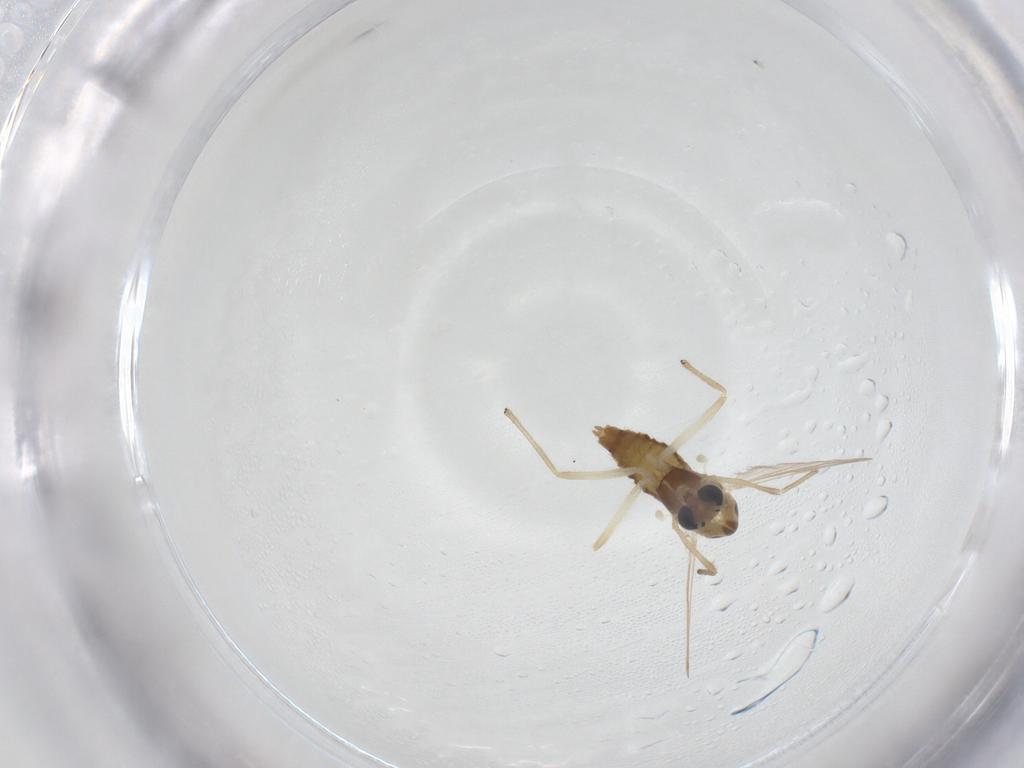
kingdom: Animalia
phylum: Arthropoda
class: Insecta
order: Diptera
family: Chironomidae
